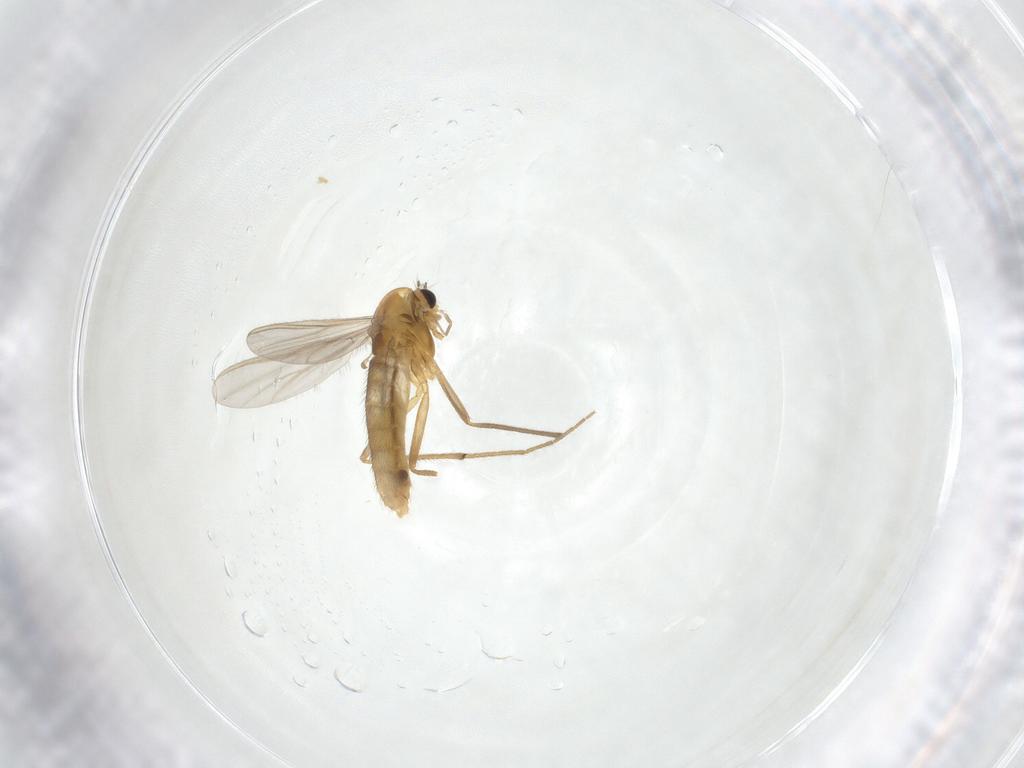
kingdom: Animalia
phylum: Arthropoda
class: Insecta
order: Diptera
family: Chironomidae
